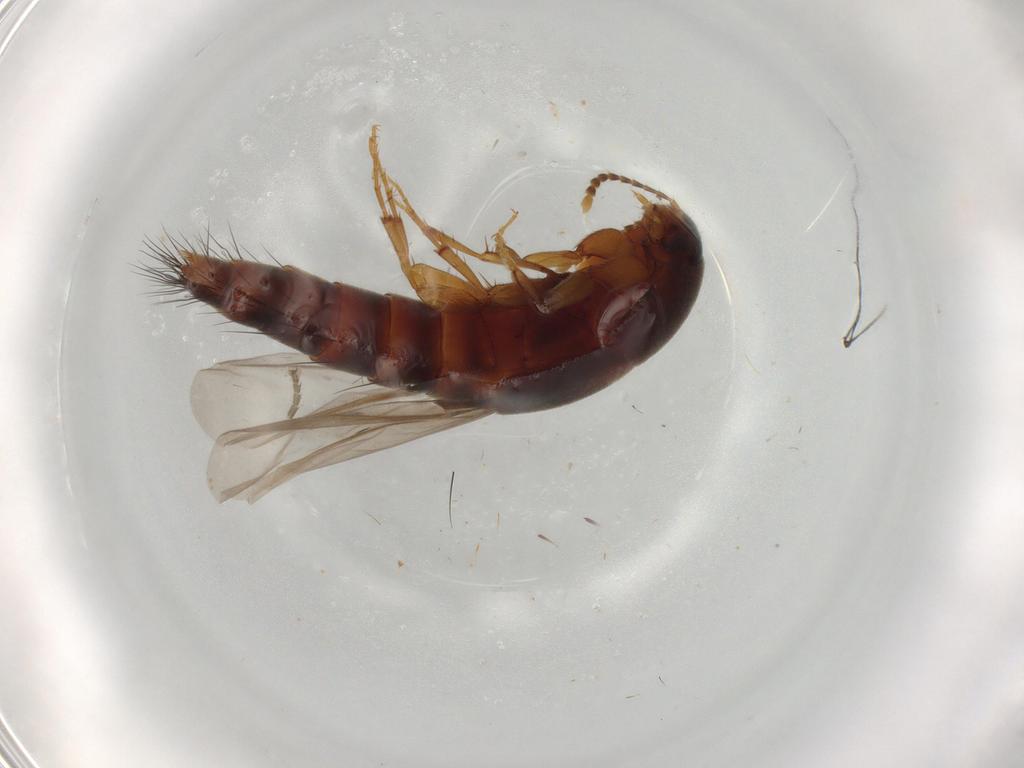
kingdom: Animalia
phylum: Arthropoda
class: Insecta
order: Coleoptera
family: Staphylinidae
